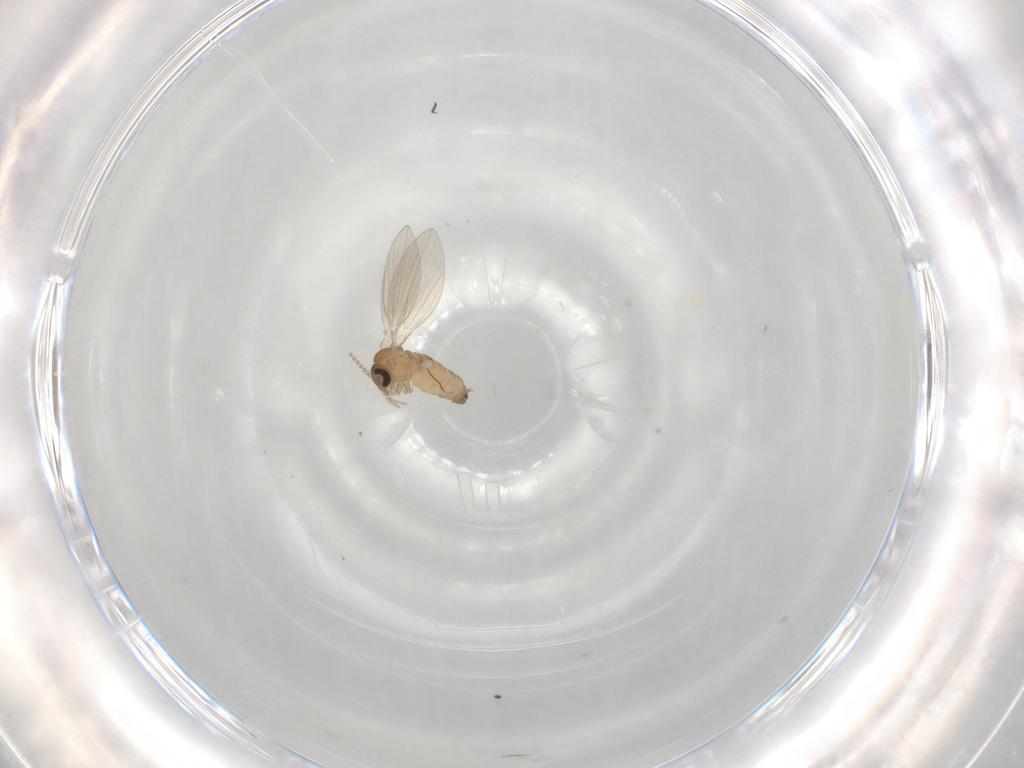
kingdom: Animalia
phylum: Arthropoda
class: Insecta
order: Diptera
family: Psychodidae
